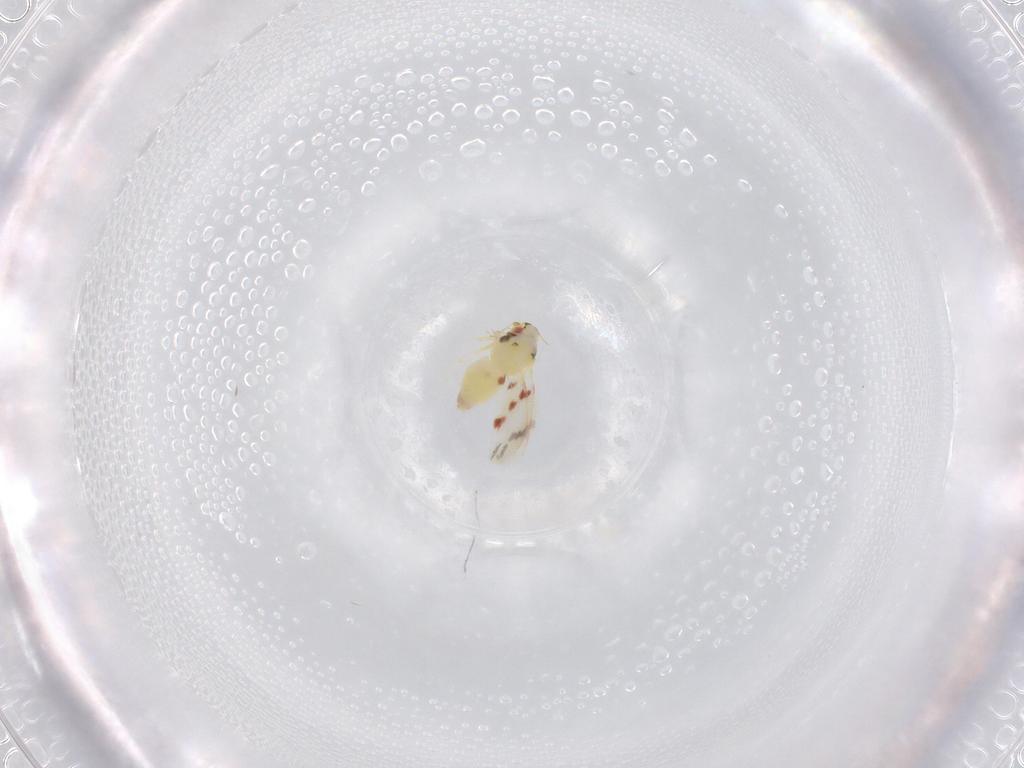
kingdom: Animalia
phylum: Arthropoda
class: Insecta
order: Hemiptera
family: Aleyrodidae
